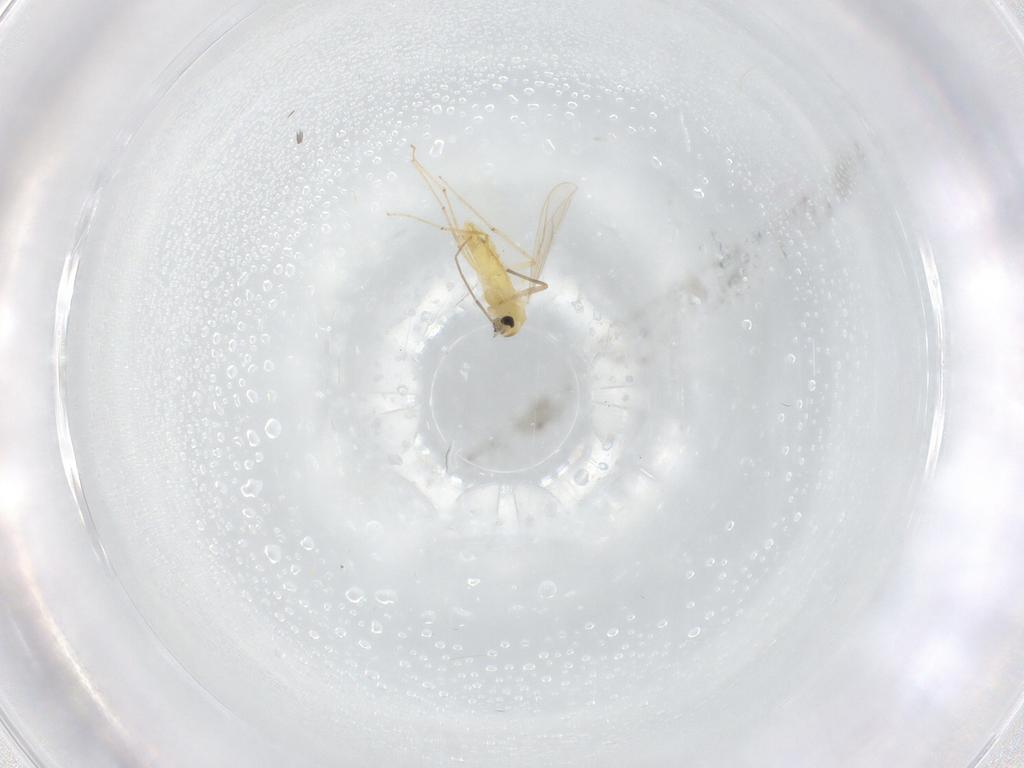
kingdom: Animalia
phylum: Arthropoda
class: Insecta
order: Diptera
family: Chironomidae
